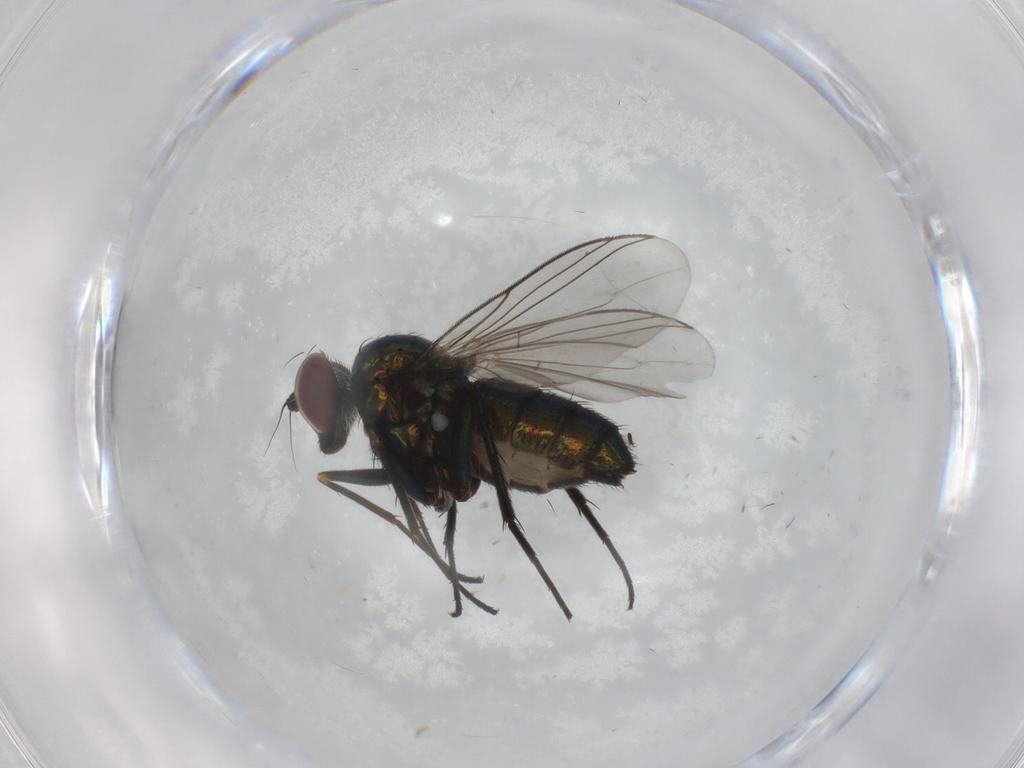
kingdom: Animalia
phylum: Arthropoda
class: Insecta
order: Diptera
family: Dolichopodidae
